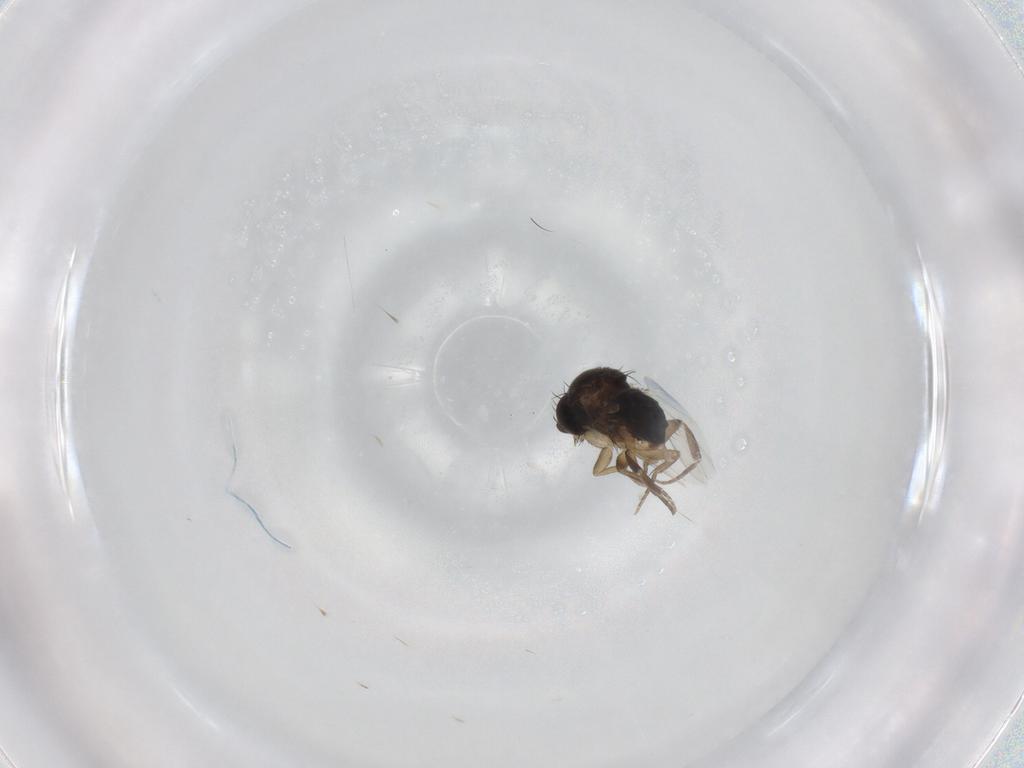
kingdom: Animalia
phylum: Arthropoda
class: Insecta
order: Diptera
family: Phoridae
